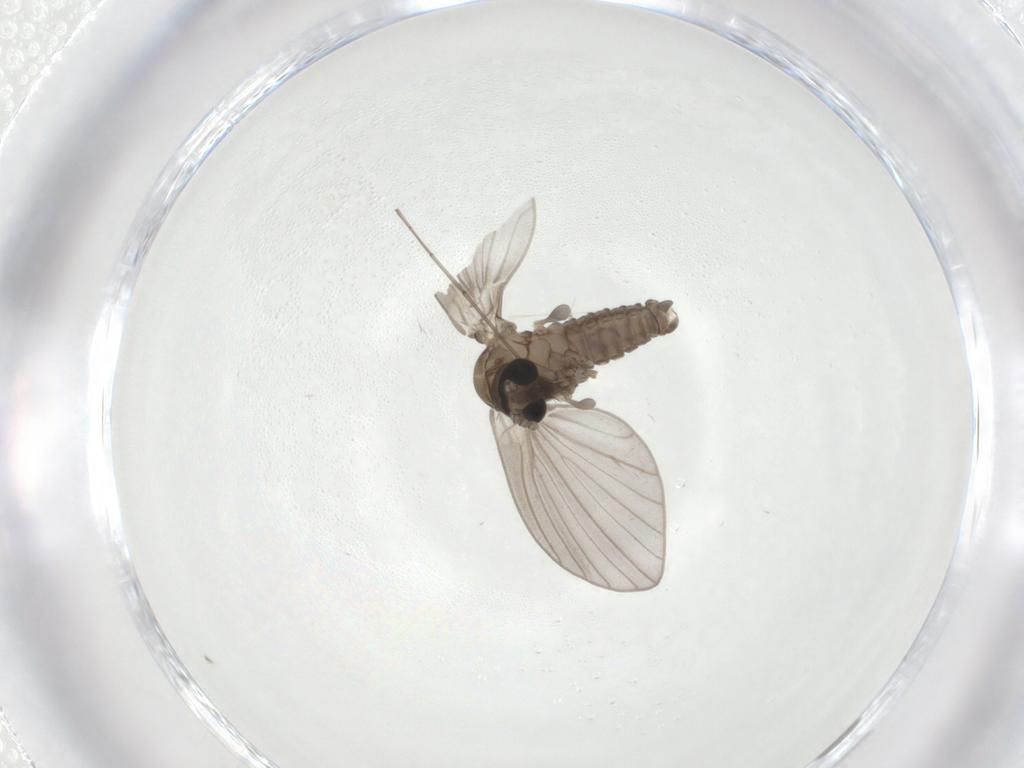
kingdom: Animalia
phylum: Arthropoda
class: Insecta
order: Diptera
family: Psychodidae
